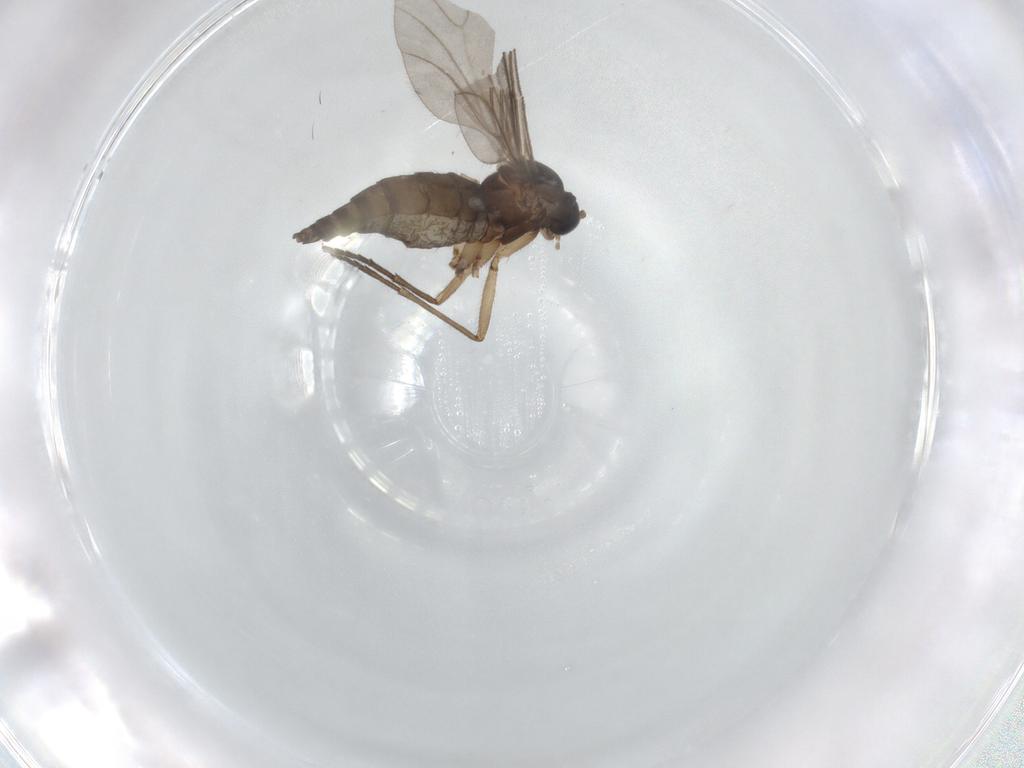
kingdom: Animalia
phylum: Arthropoda
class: Insecta
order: Diptera
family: Sciaridae
